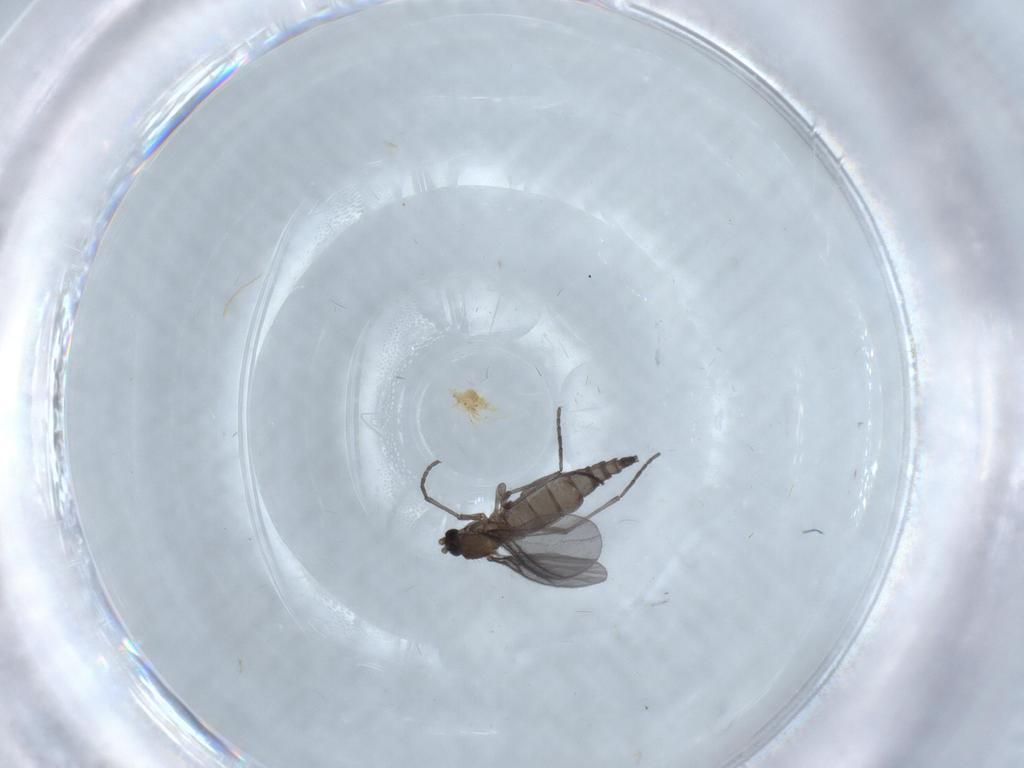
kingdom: Animalia
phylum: Arthropoda
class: Insecta
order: Diptera
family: Sciaridae
